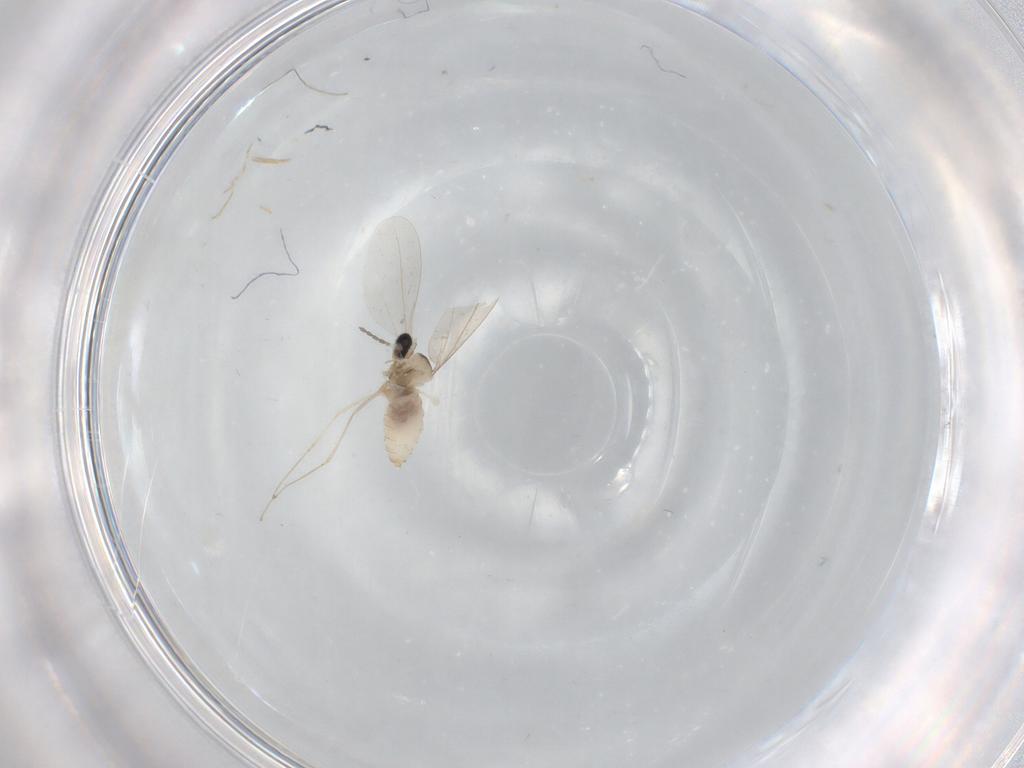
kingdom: Animalia
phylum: Arthropoda
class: Insecta
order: Diptera
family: Cecidomyiidae
